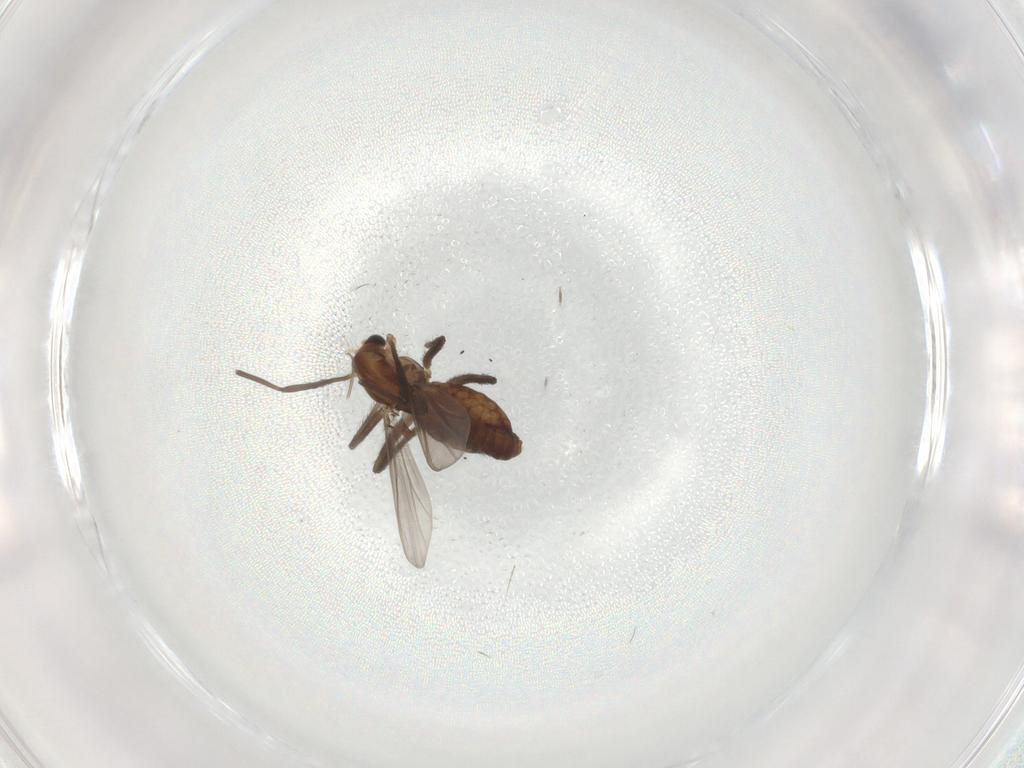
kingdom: Animalia
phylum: Arthropoda
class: Insecta
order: Diptera
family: Chironomidae
